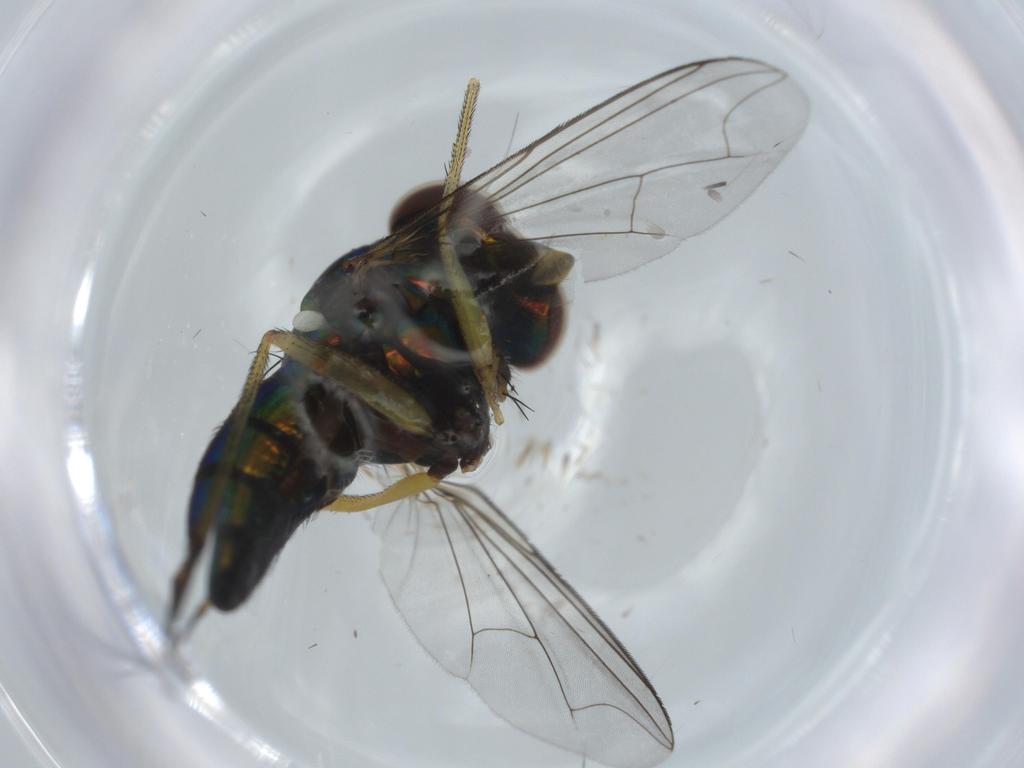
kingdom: Animalia
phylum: Arthropoda
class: Insecta
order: Diptera
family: Dolichopodidae
